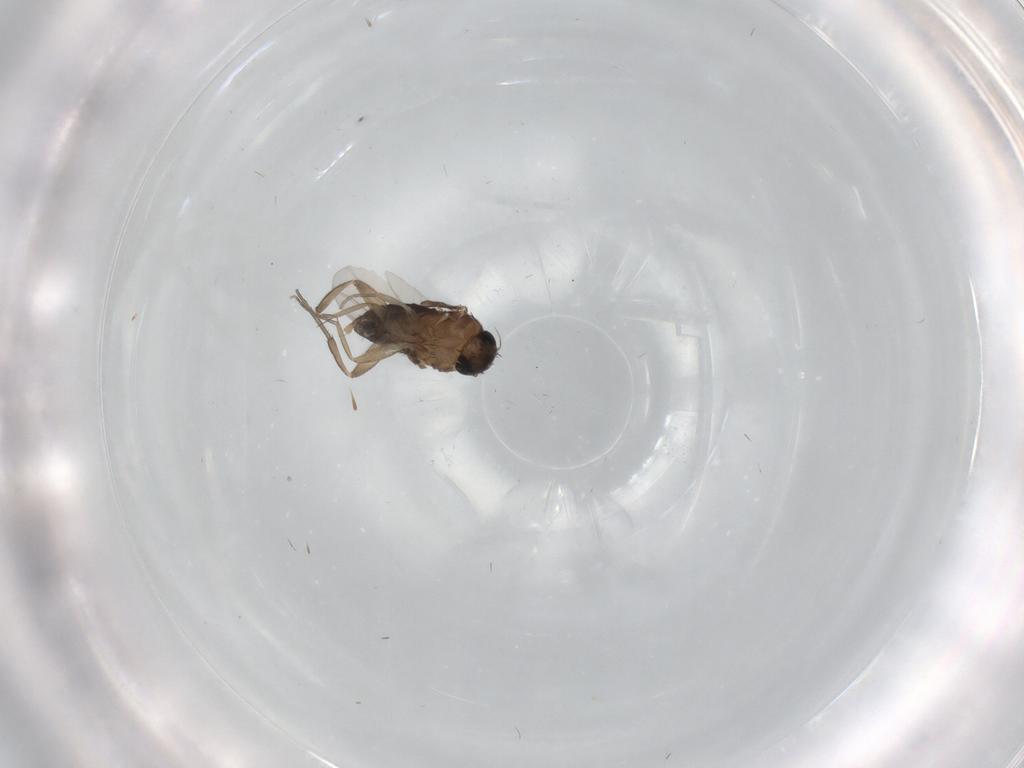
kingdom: Animalia
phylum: Arthropoda
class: Insecta
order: Diptera
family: Phoridae
